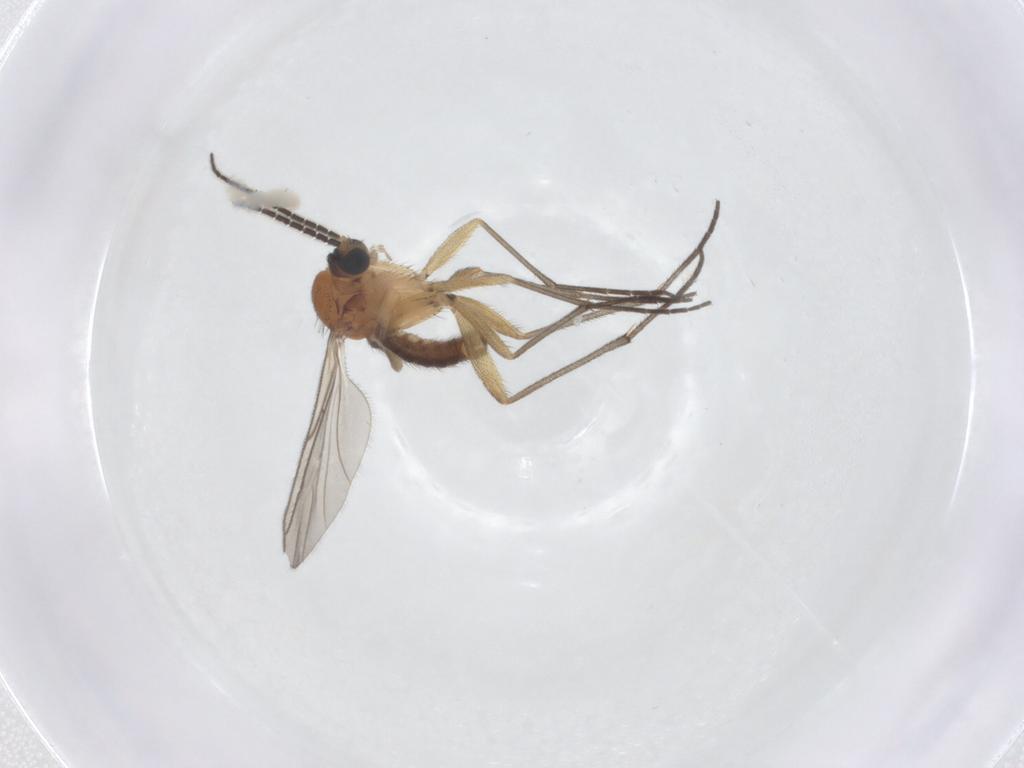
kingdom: Animalia
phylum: Arthropoda
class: Insecta
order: Diptera
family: Sciaridae
